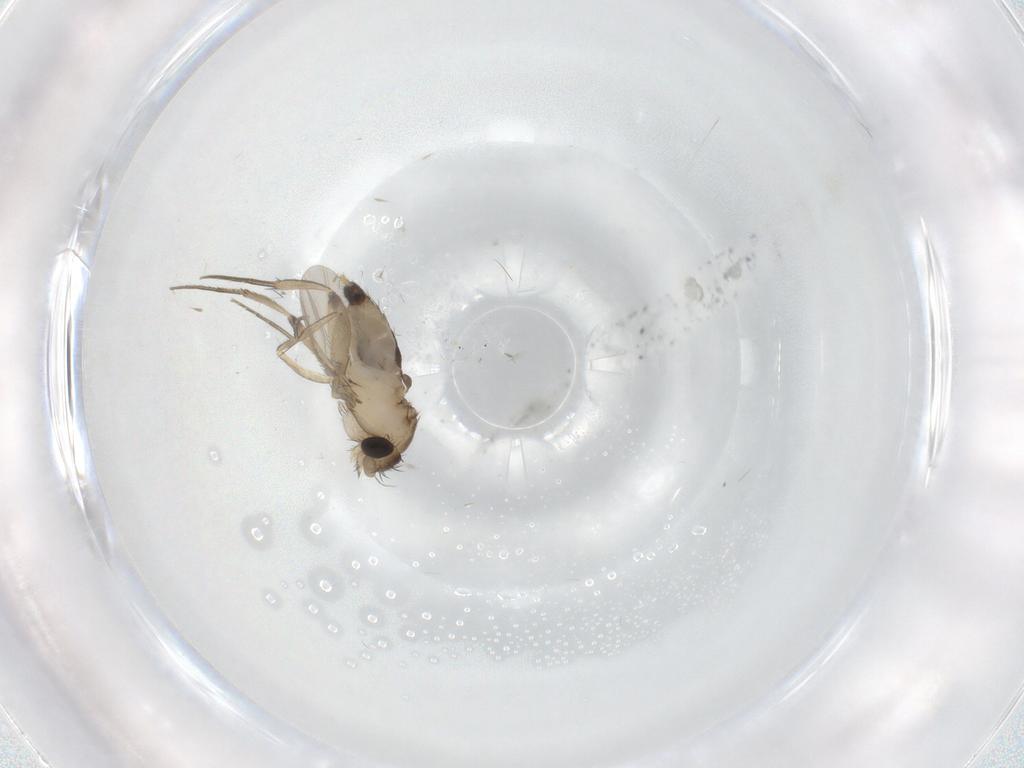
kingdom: Animalia
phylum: Arthropoda
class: Insecta
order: Diptera
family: Phoridae
